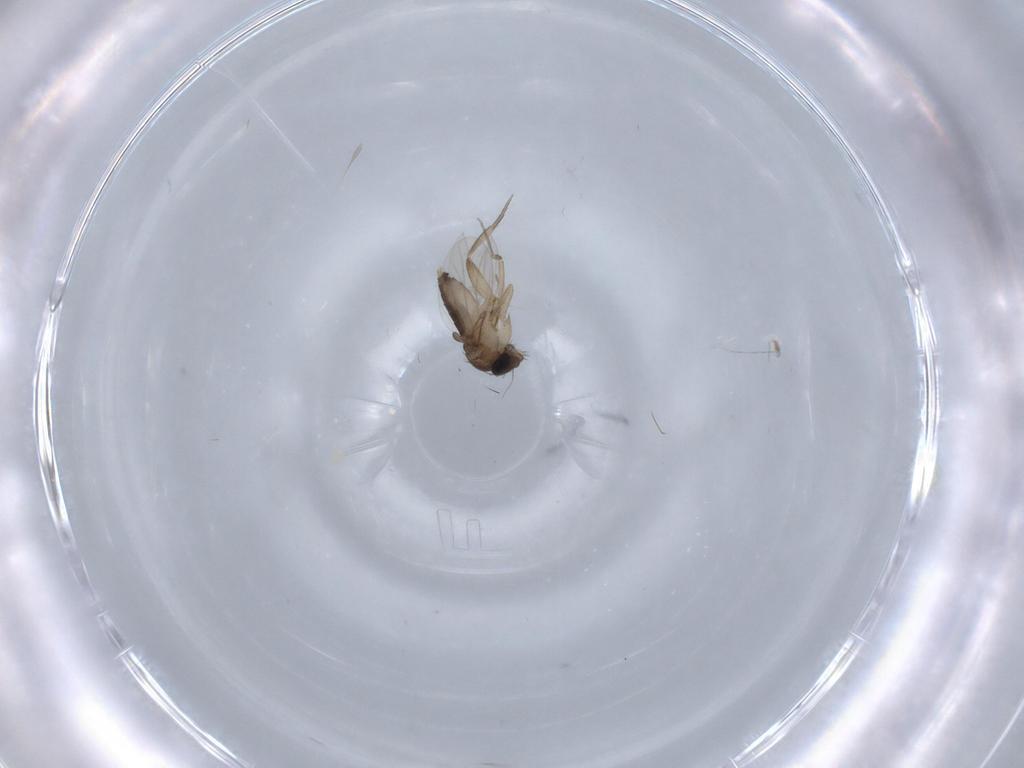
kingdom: Animalia
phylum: Arthropoda
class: Insecta
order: Diptera
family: Phoridae
